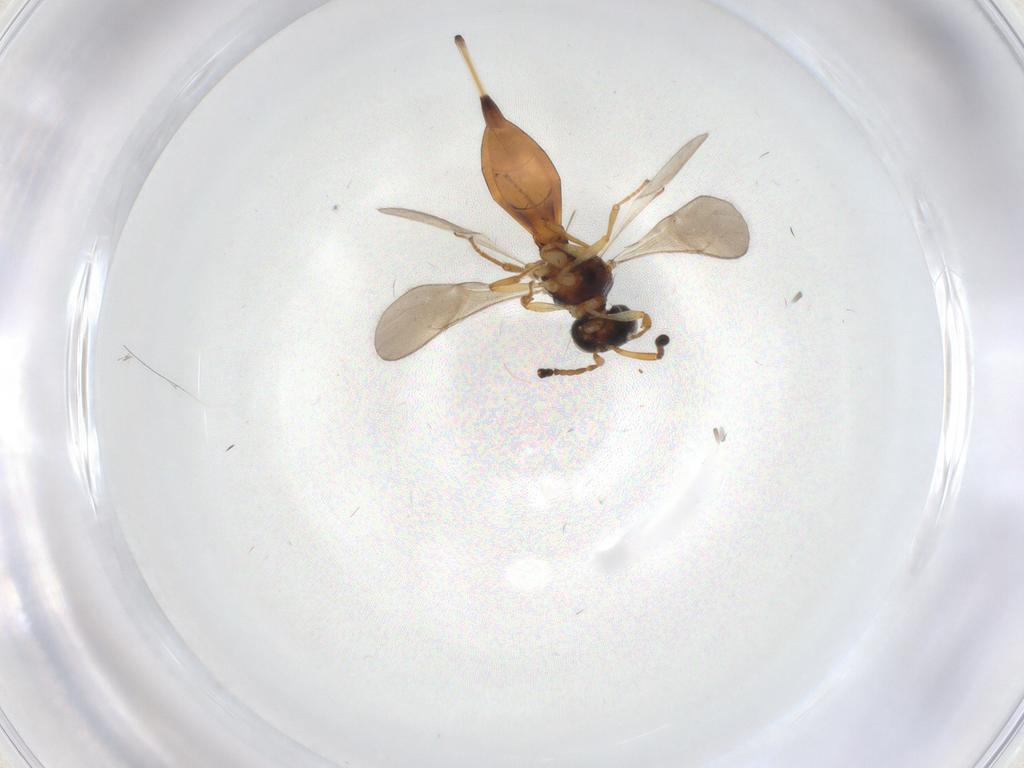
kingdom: Animalia
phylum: Arthropoda
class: Insecta
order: Hymenoptera
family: Scelionidae
